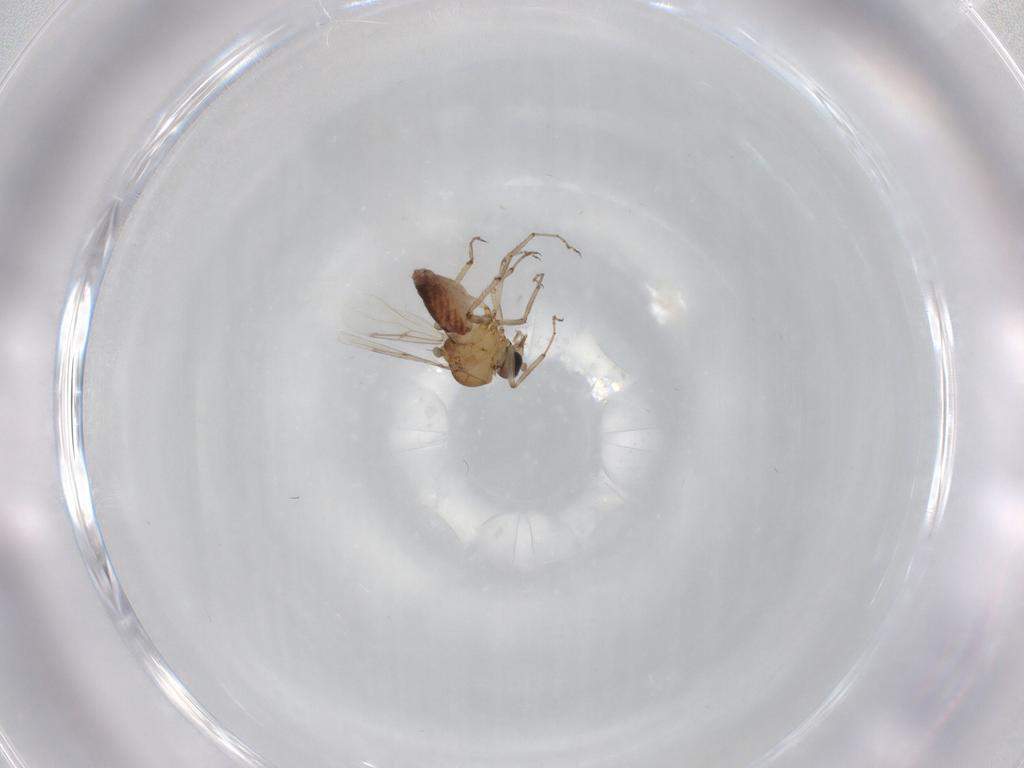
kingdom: Animalia
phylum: Arthropoda
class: Insecta
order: Diptera
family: Ceratopogonidae
